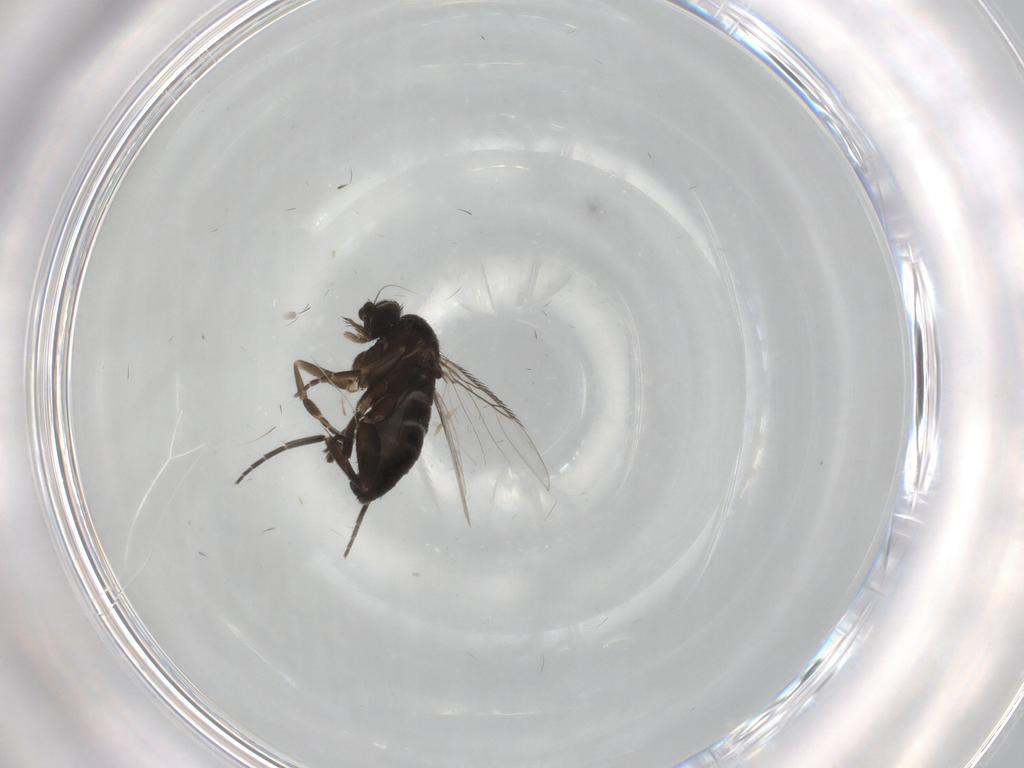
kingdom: Animalia
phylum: Arthropoda
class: Insecta
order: Diptera
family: Phoridae
